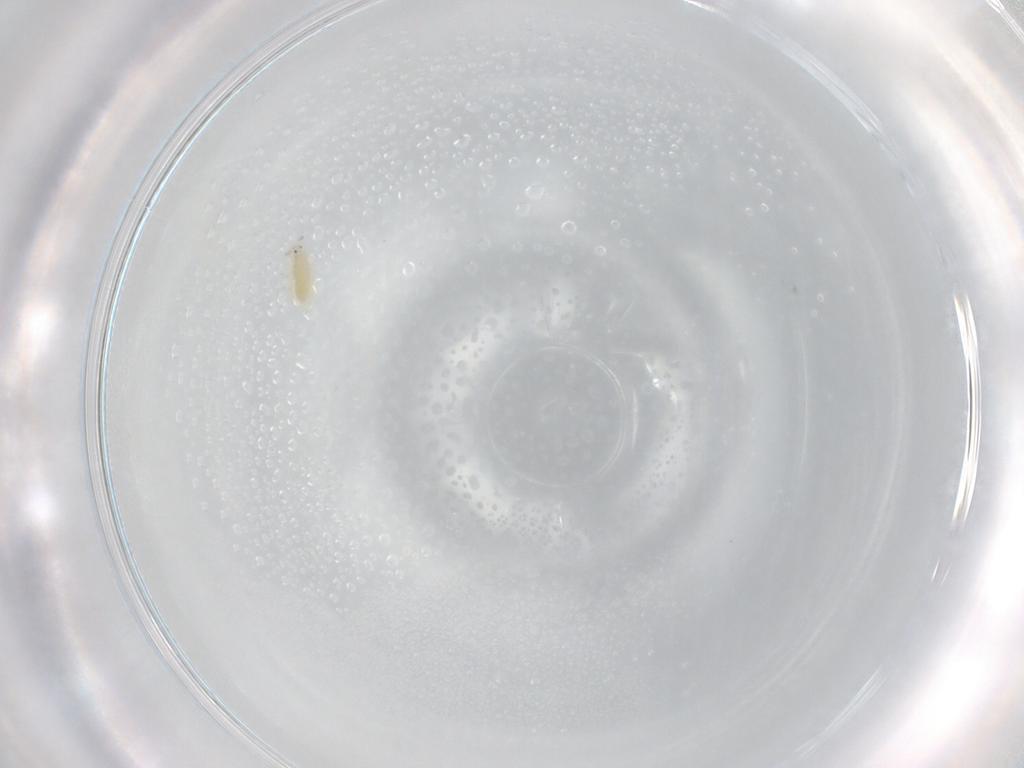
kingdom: Animalia
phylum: Arthropoda
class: Insecta
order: Thysanoptera
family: Thripidae
